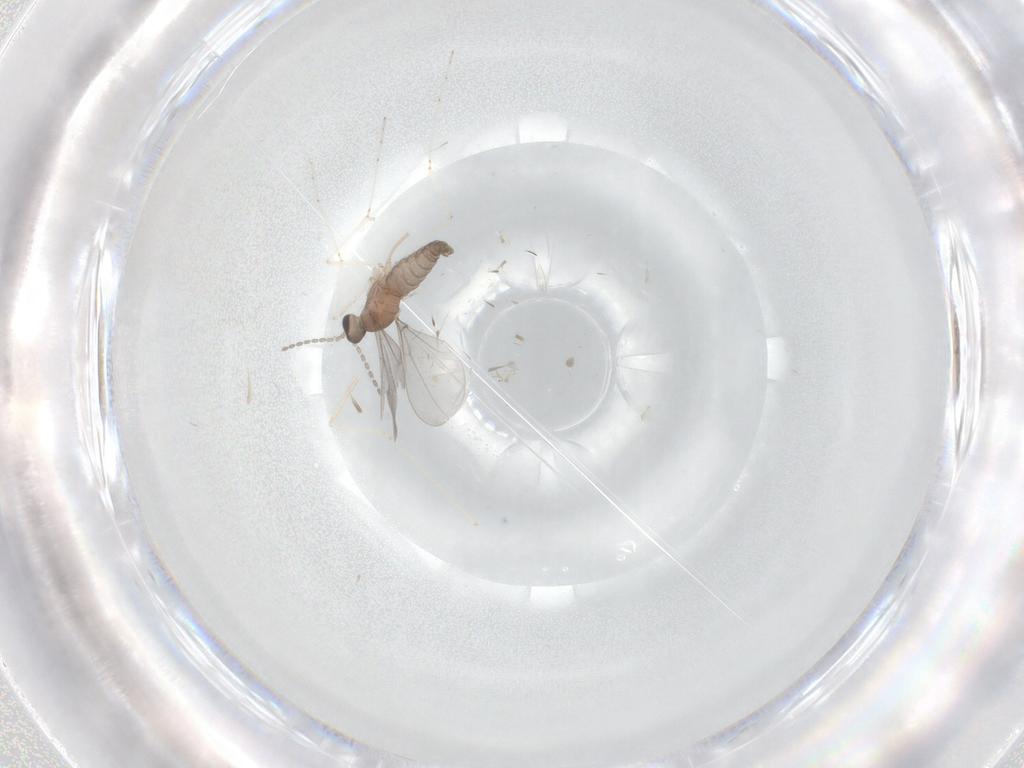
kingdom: Animalia
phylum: Arthropoda
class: Insecta
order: Diptera
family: Cecidomyiidae
